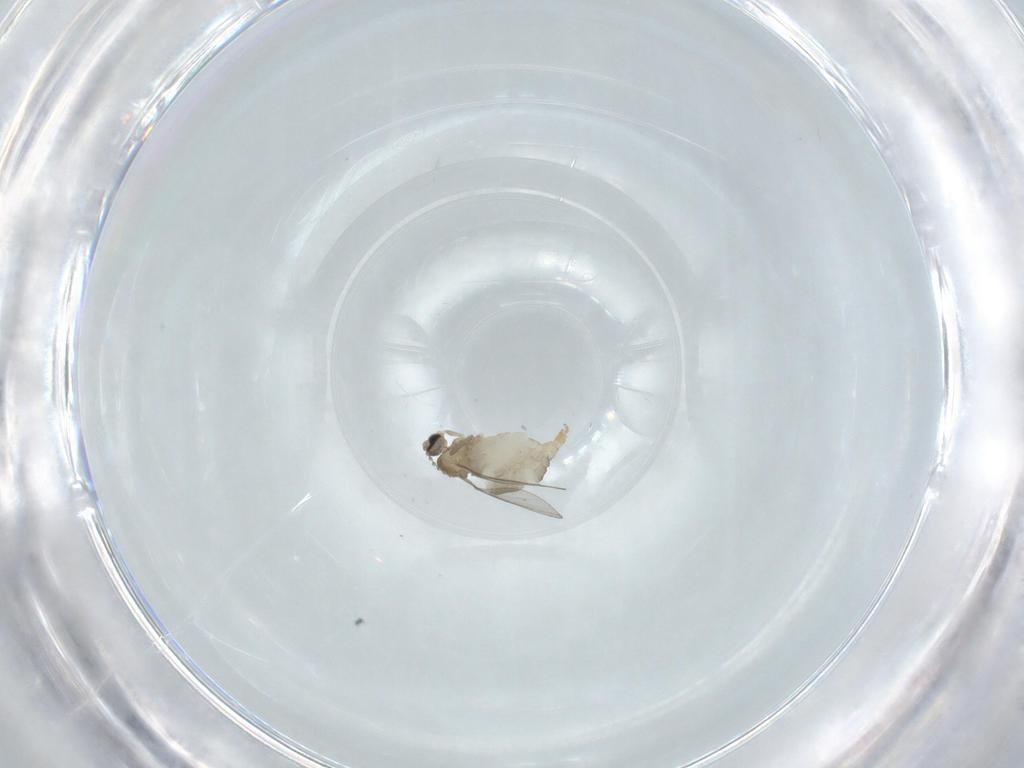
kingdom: Animalia
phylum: Arthropoda
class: Insecta
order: Diptera
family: Cecidomyiidae
